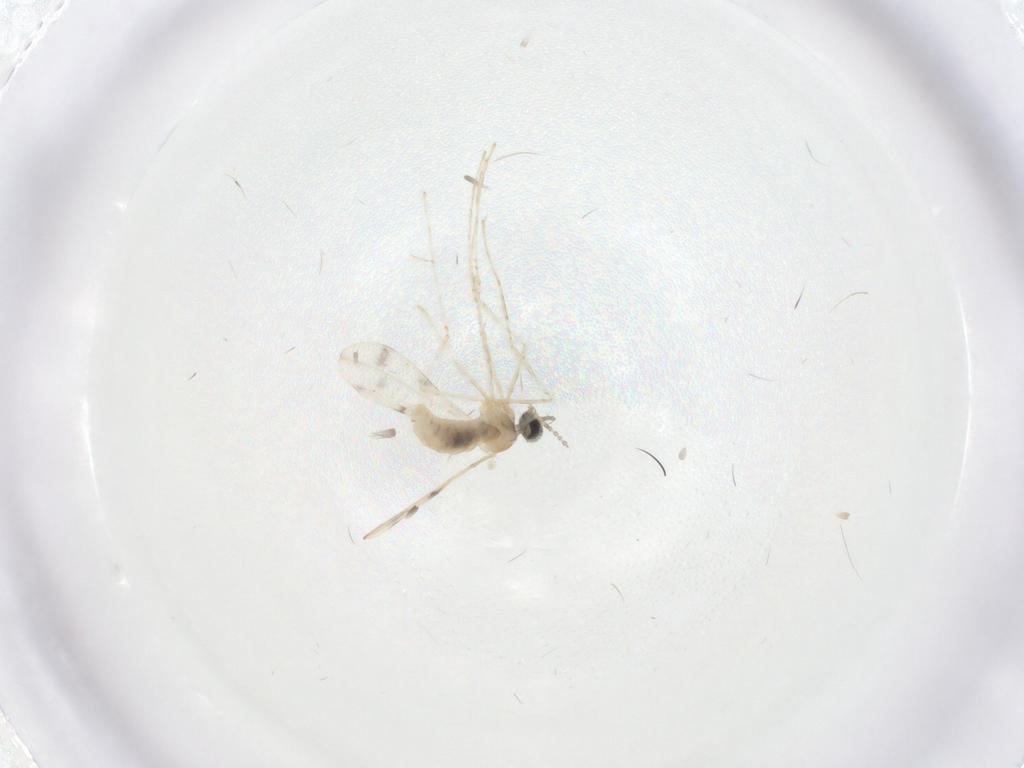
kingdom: Animalia
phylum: Arthropoda
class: Insecta
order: Diptera
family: Cecidomyiidae
